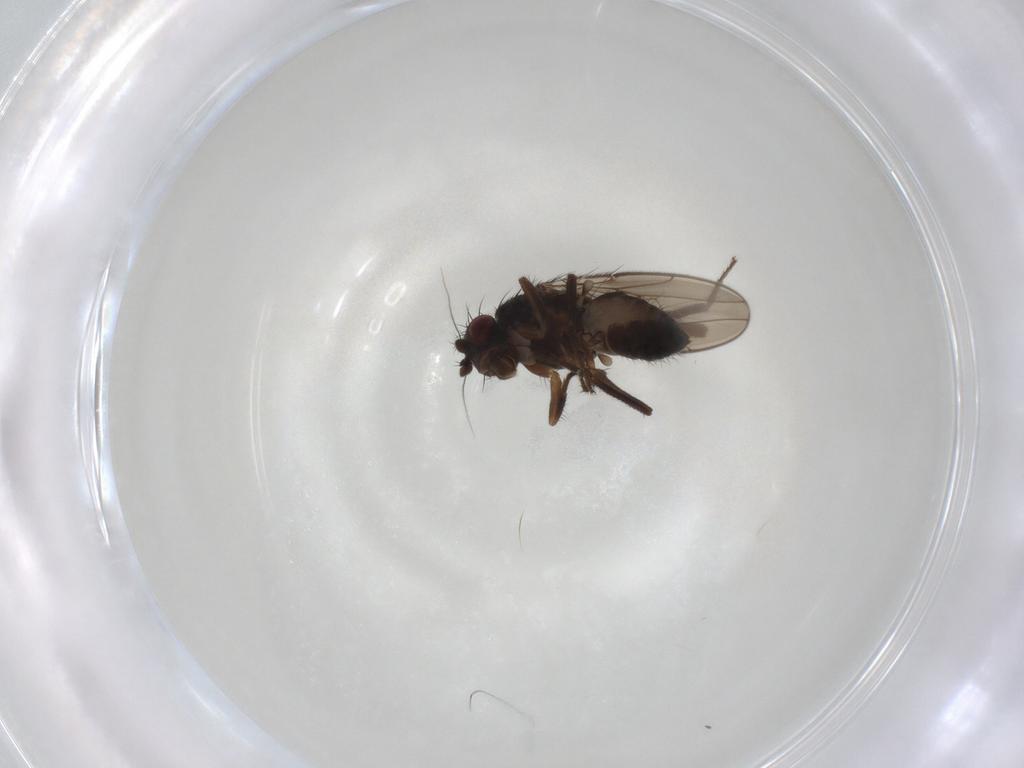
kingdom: Animalia
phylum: Arthropoda
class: Insecta
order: Diptera
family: Sphaeroceridae
